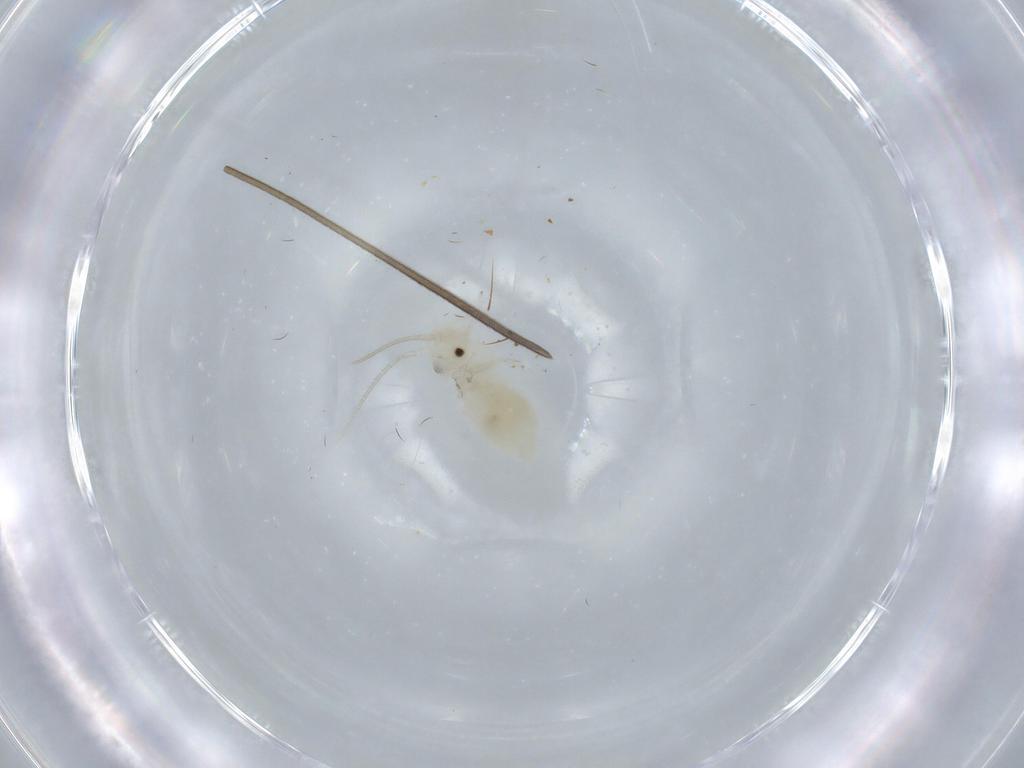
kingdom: Animalia
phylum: Arthropoda
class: Insecta
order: Psocodea
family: Caeciliusidae
